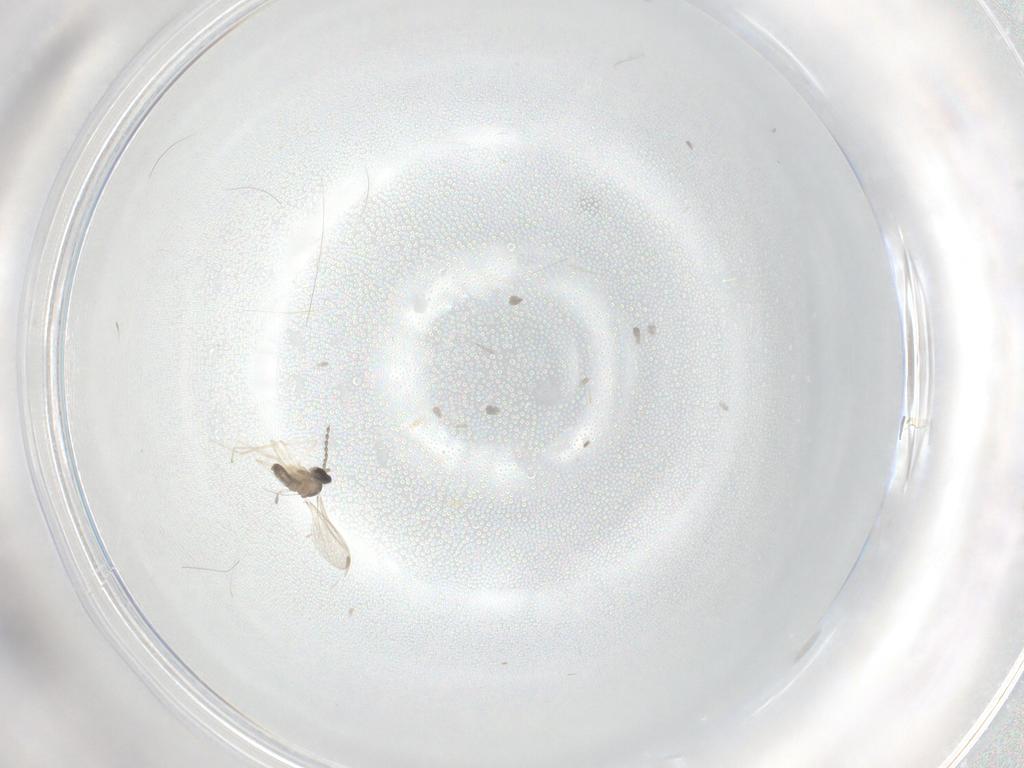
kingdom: Animalia
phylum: Arthropoda
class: Insecta
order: Diptera
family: Cecidomyiidae
